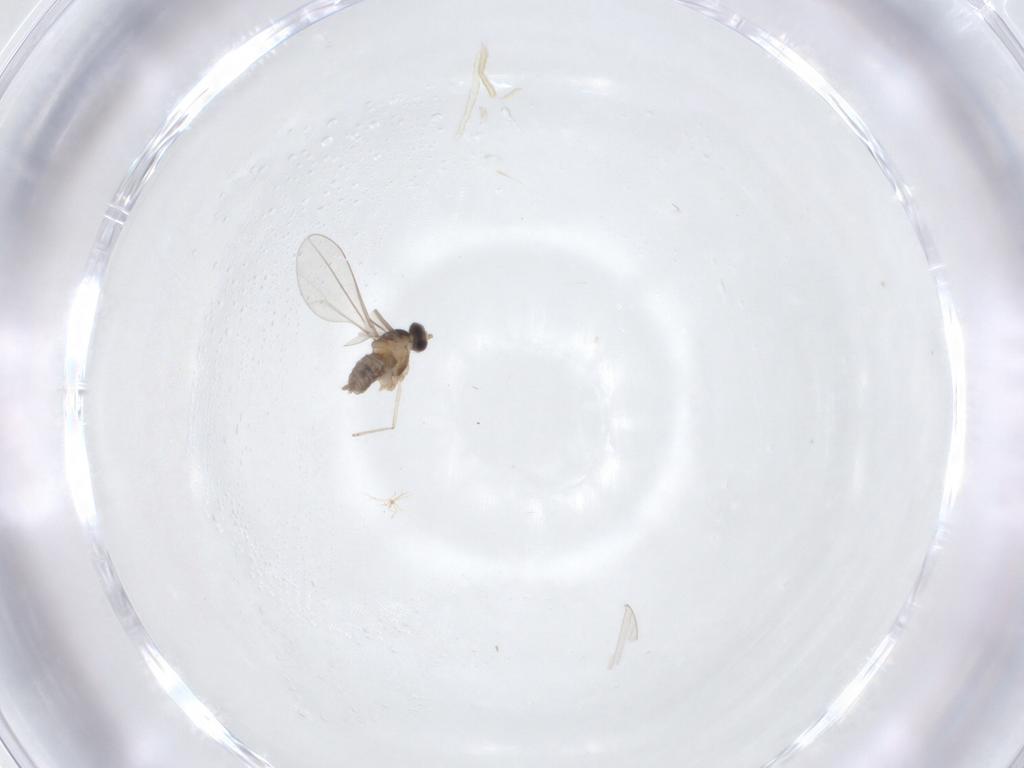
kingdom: Animalia
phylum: Arthropoda
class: Insecta
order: Diptera
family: Psychodidae
